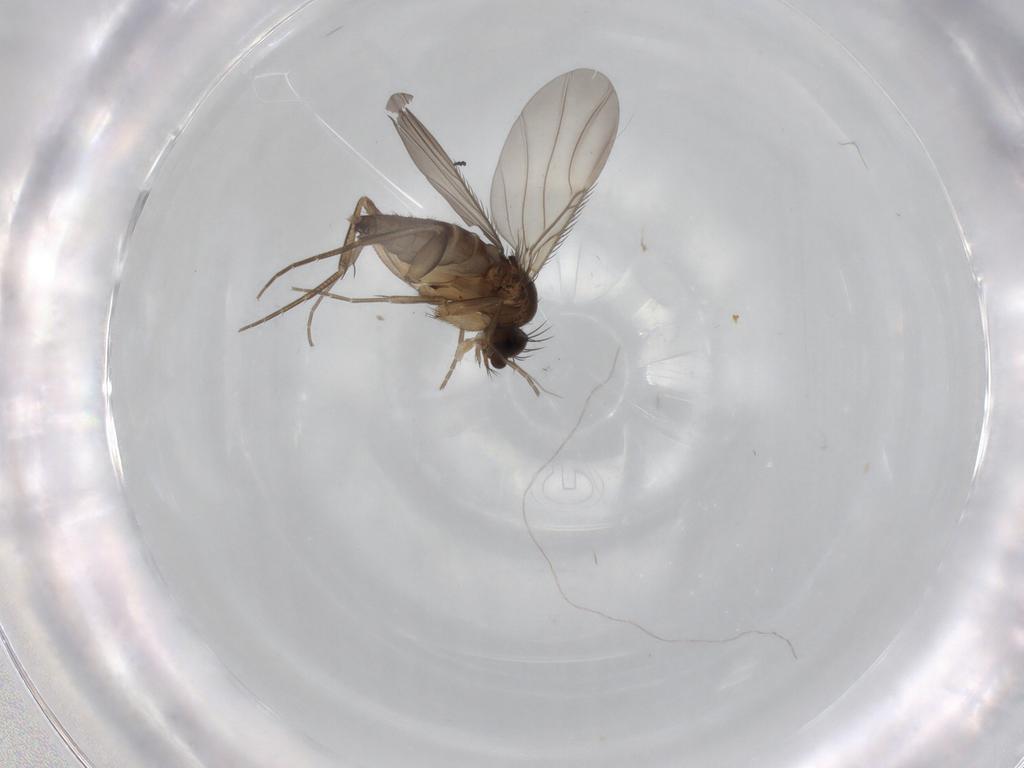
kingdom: Animalia
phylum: Arthropoda
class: Insecta
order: Diptera
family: Phoridae
